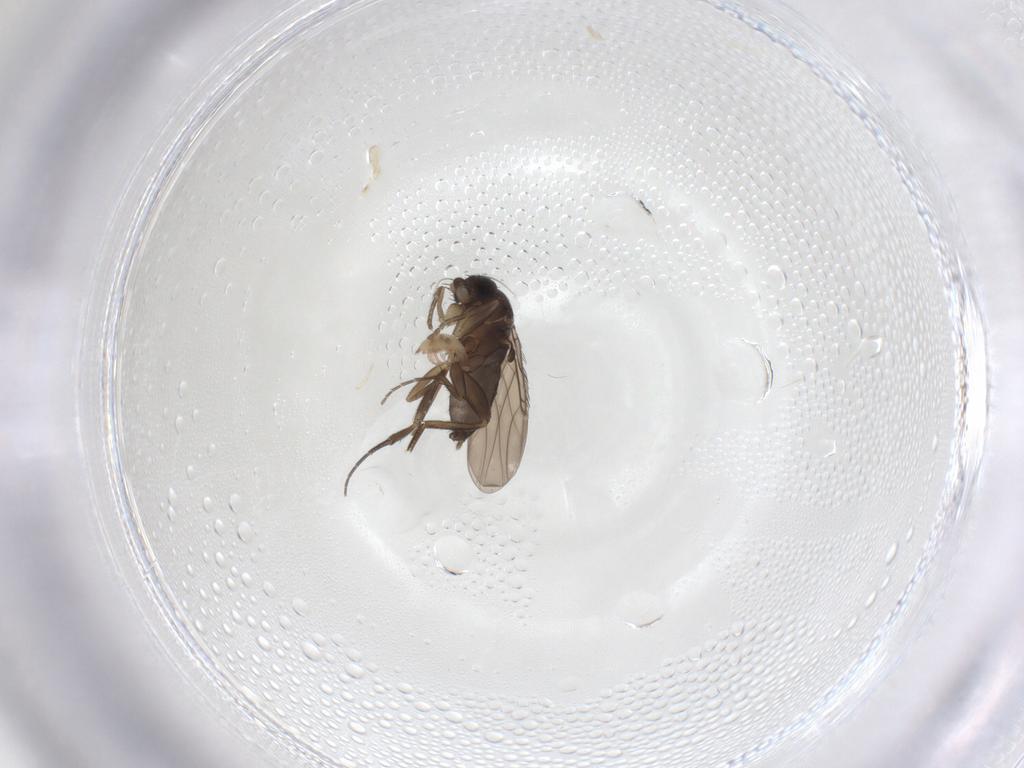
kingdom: Animalia
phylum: Arthropoda
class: Insecta
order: Diptera
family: Phoridae
